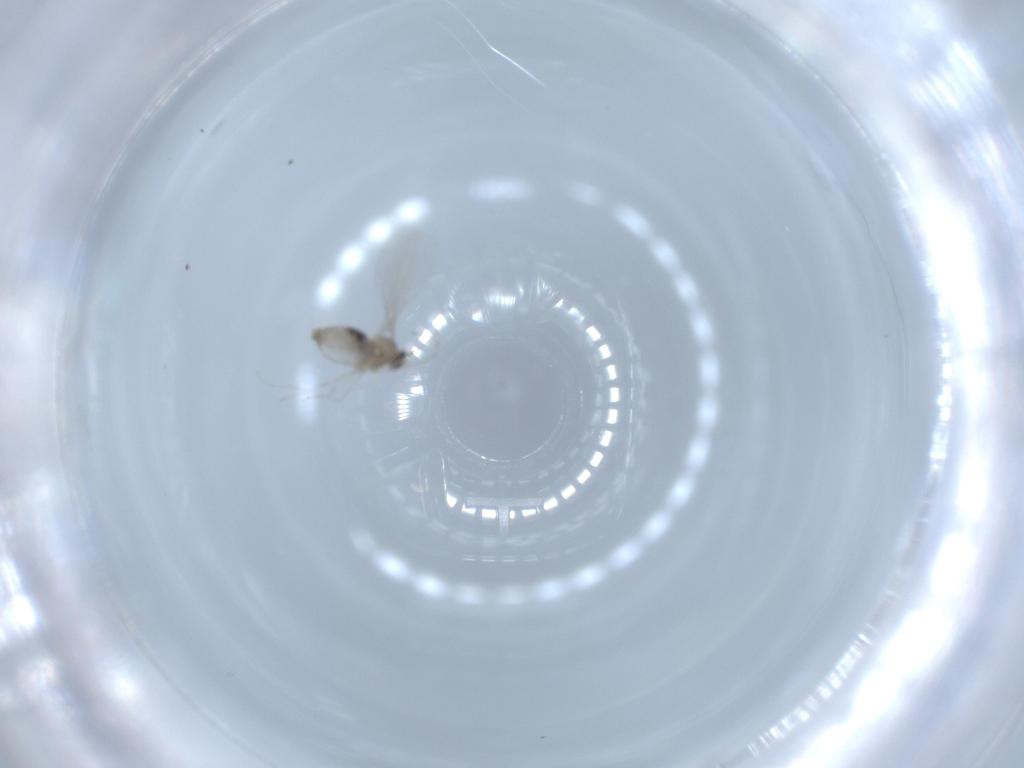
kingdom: Animalia
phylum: Arthropoda
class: Insecta
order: Diptera
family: Cecidomyiidae
